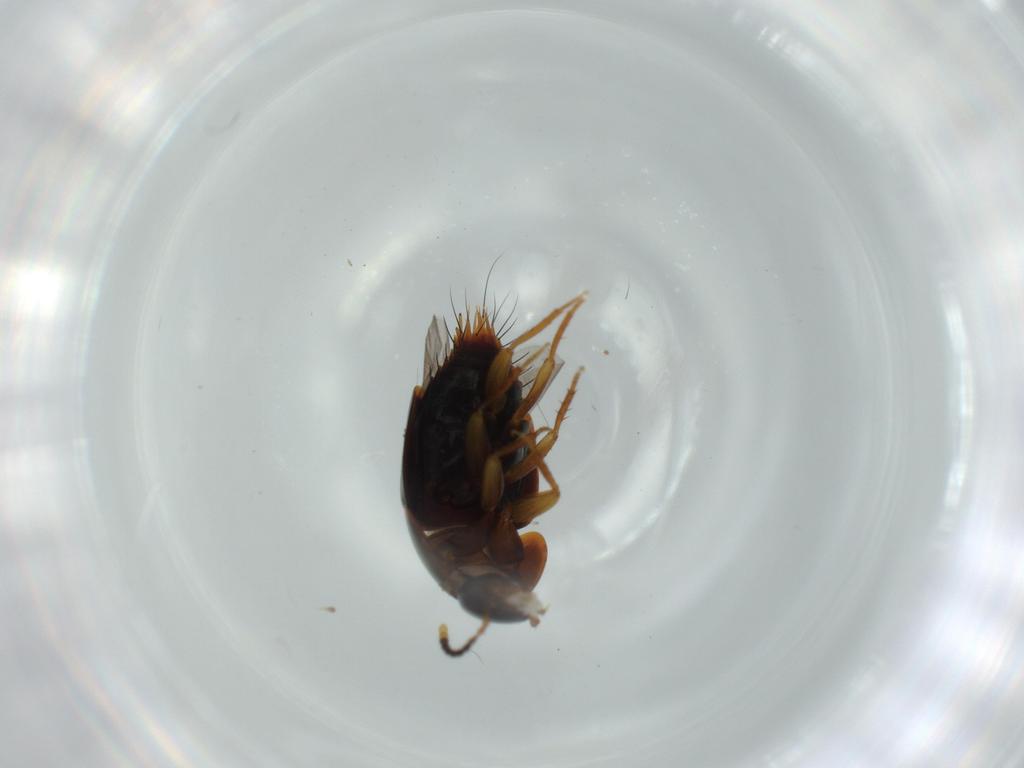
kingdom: Animalia
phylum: Arthropoda
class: Insecta
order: Coleoptera
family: Staphylinidae
